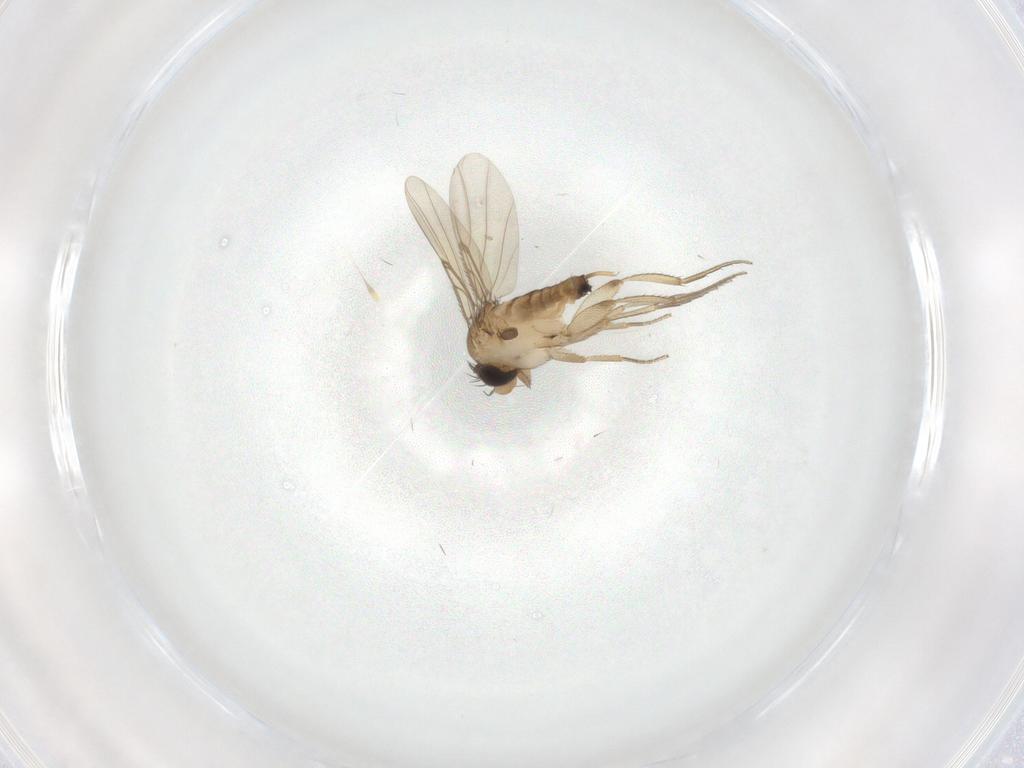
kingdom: Animalia
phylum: Arthropoda
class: Insecta
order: Diptera
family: Phoridae
